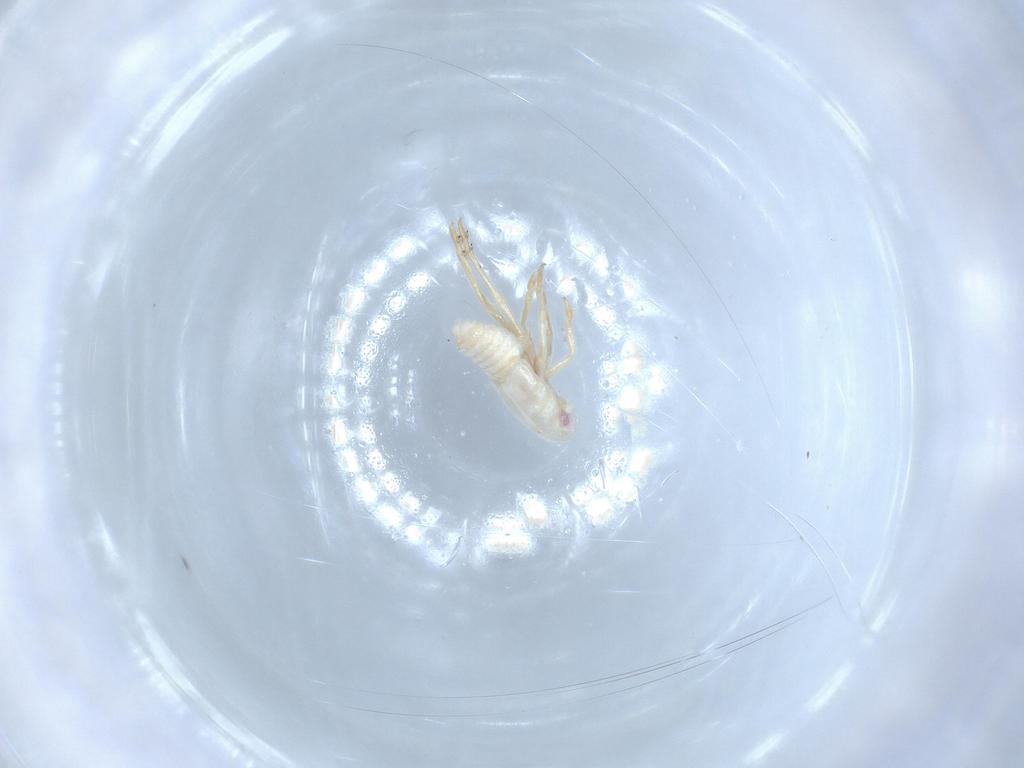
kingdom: Animalia
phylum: Arthropoda
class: Insecta
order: Hemiptera
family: Flatidae
